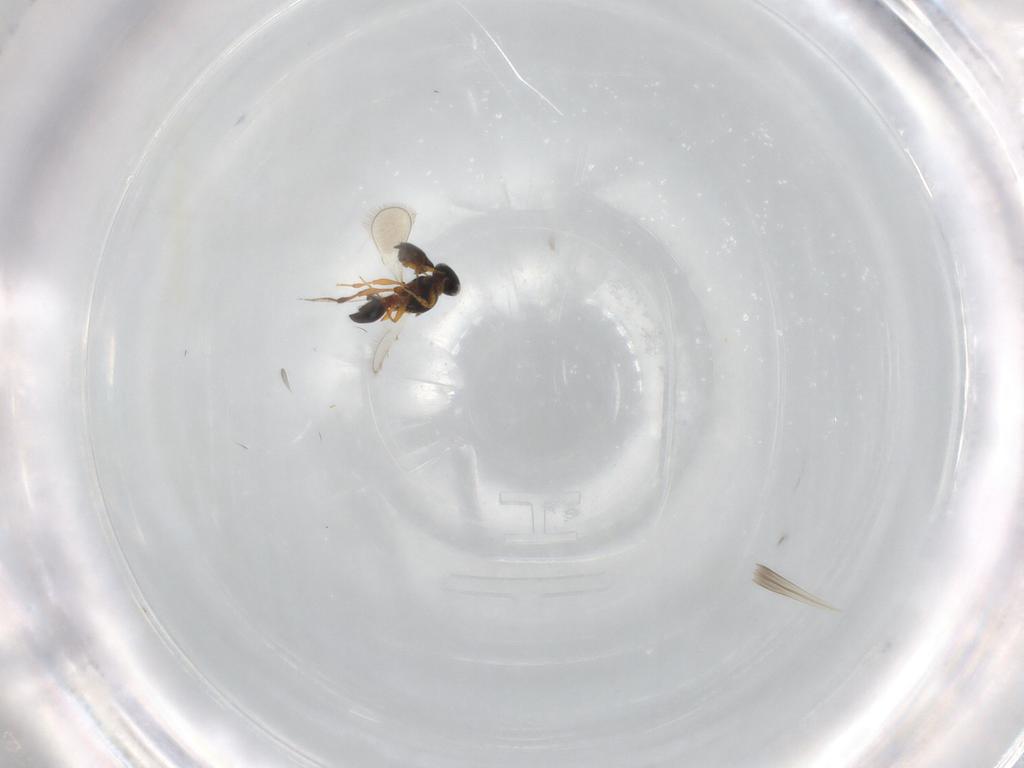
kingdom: Animalia
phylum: Arthropoda
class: Insecta
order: Hymenoptera
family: Platygastridae
